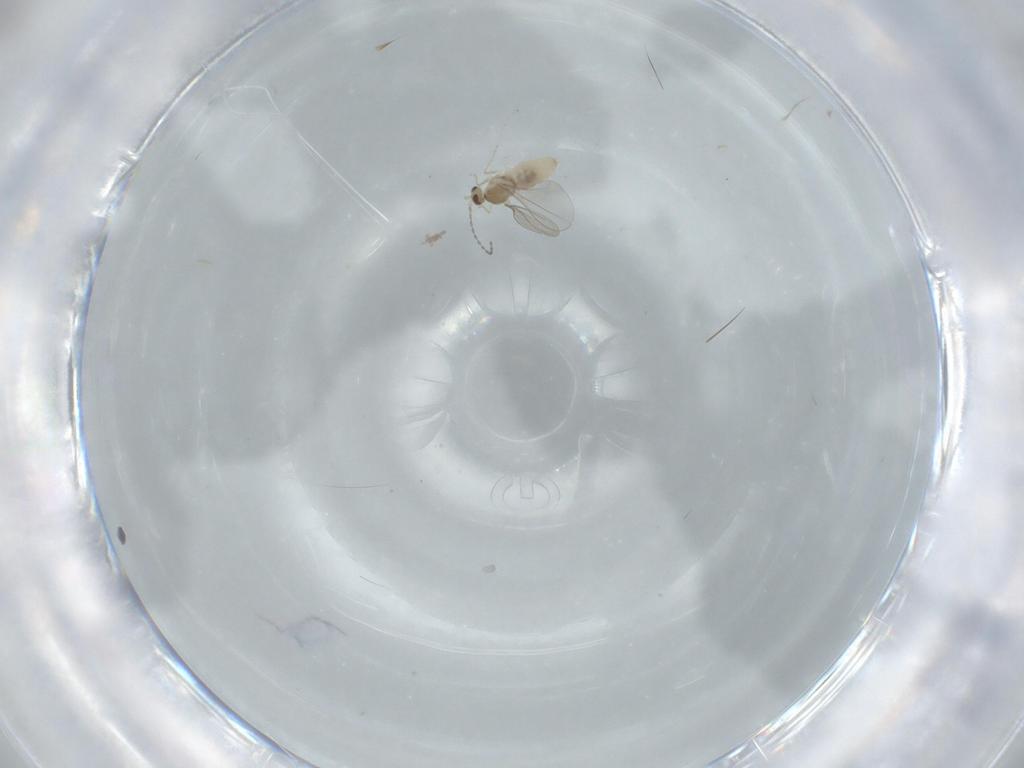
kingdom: Animalia
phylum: Arthropoda
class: Insecta
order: Diptera
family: Cecidomyiidae
